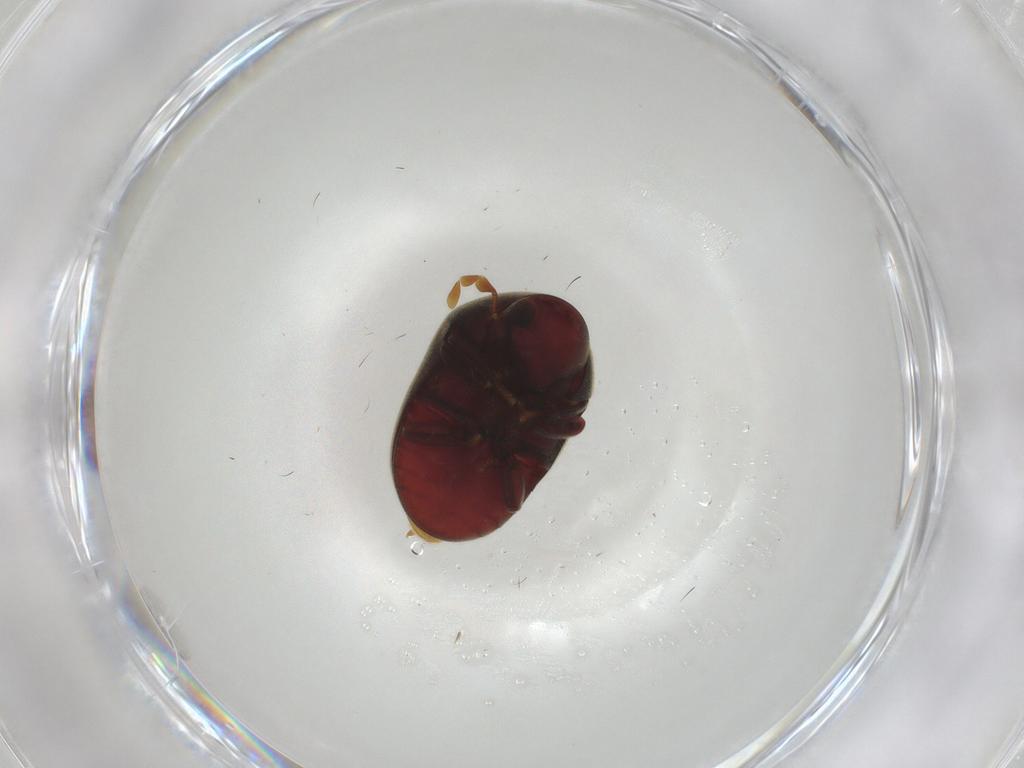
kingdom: Animalia
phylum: Arthropoda
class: Insecta
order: Coleoptera
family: Ptinidae
